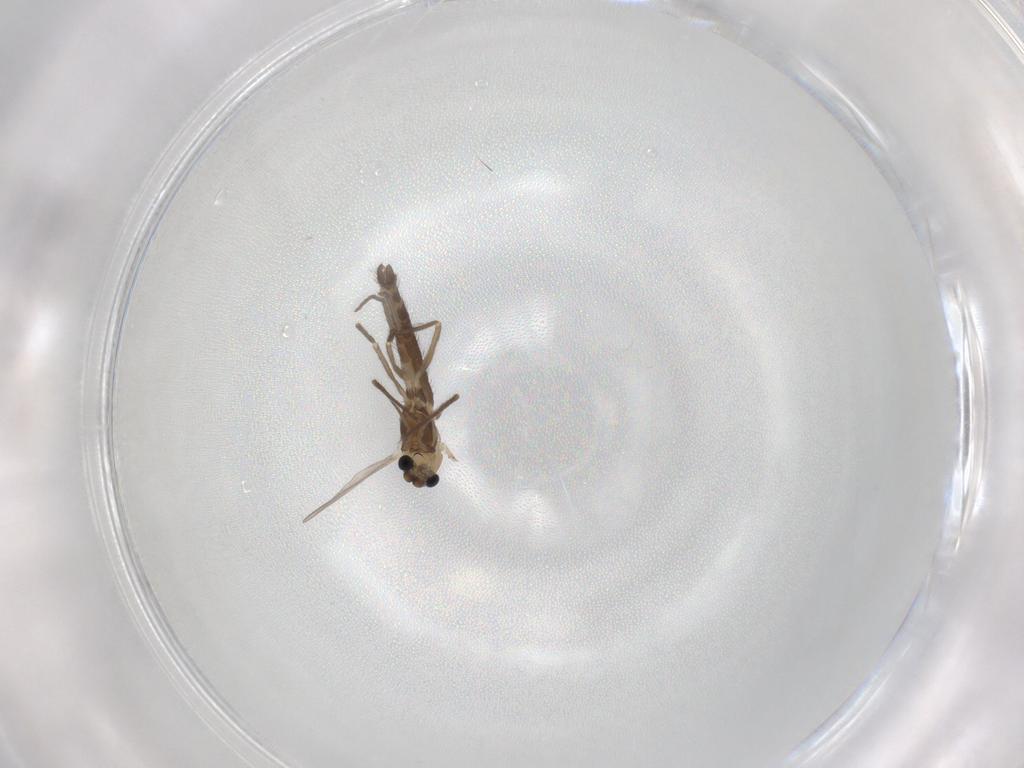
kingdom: Animalia
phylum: Arthropoda
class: Insecta
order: Diptera
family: Chironomidae
